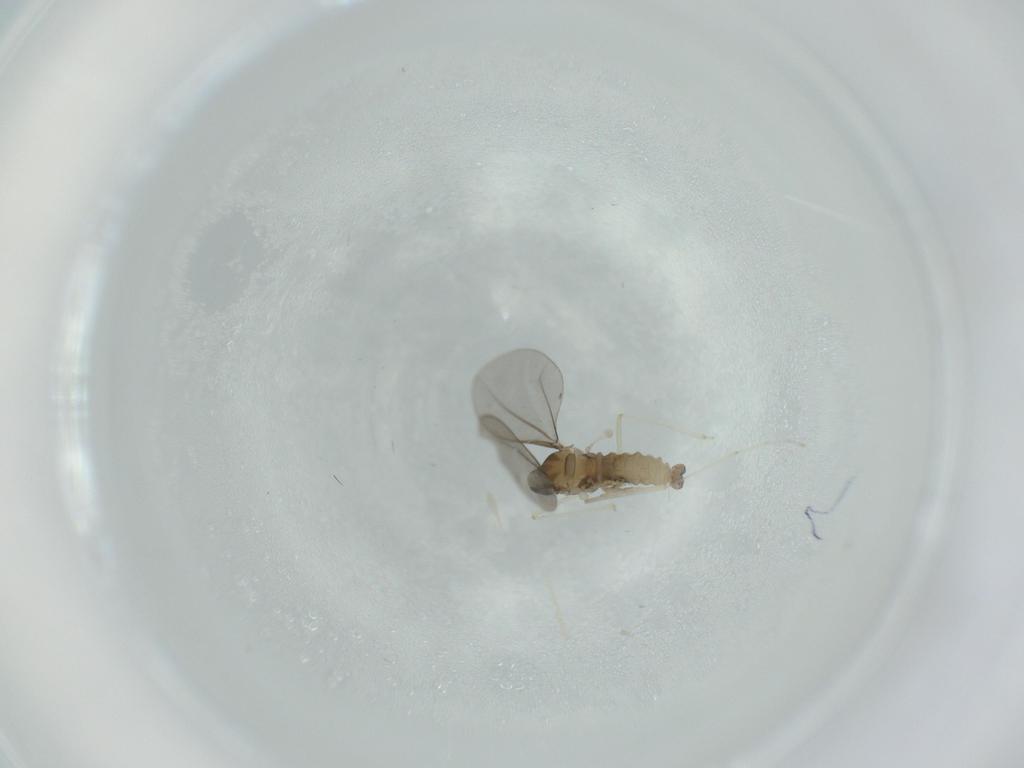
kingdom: Animalia
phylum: Arthropoda
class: Insecta
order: Diptera
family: Cecidomyiidae
